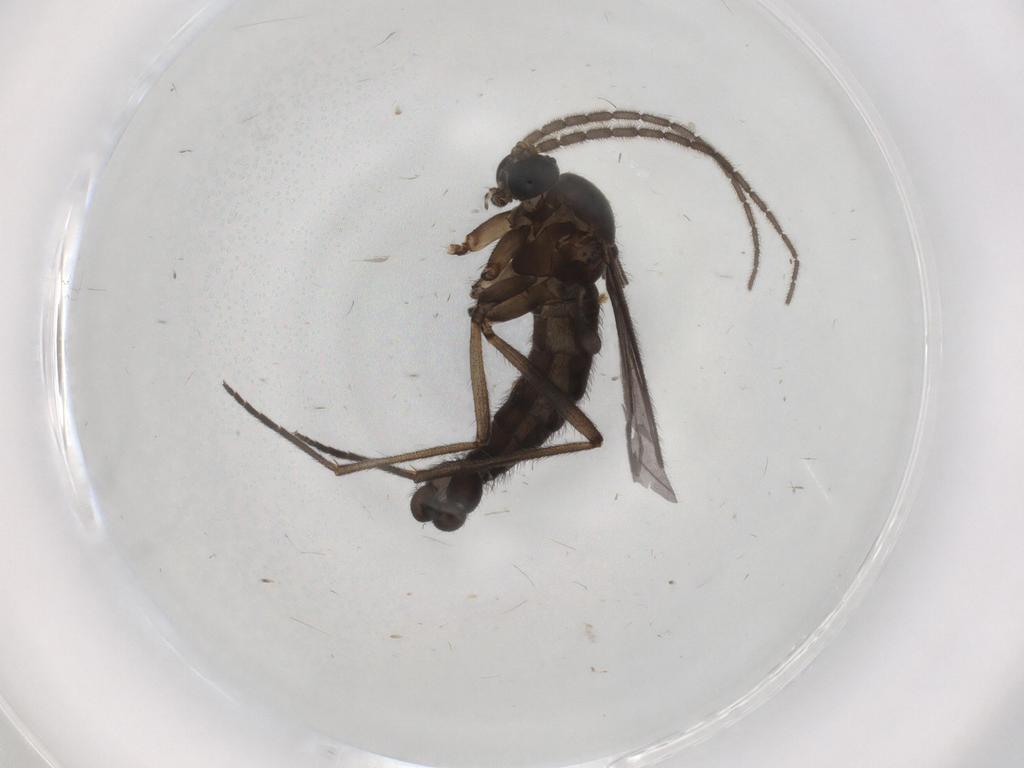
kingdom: Animalia
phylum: Arthropoda
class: Insecta
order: Diptera
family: Sciaridae
